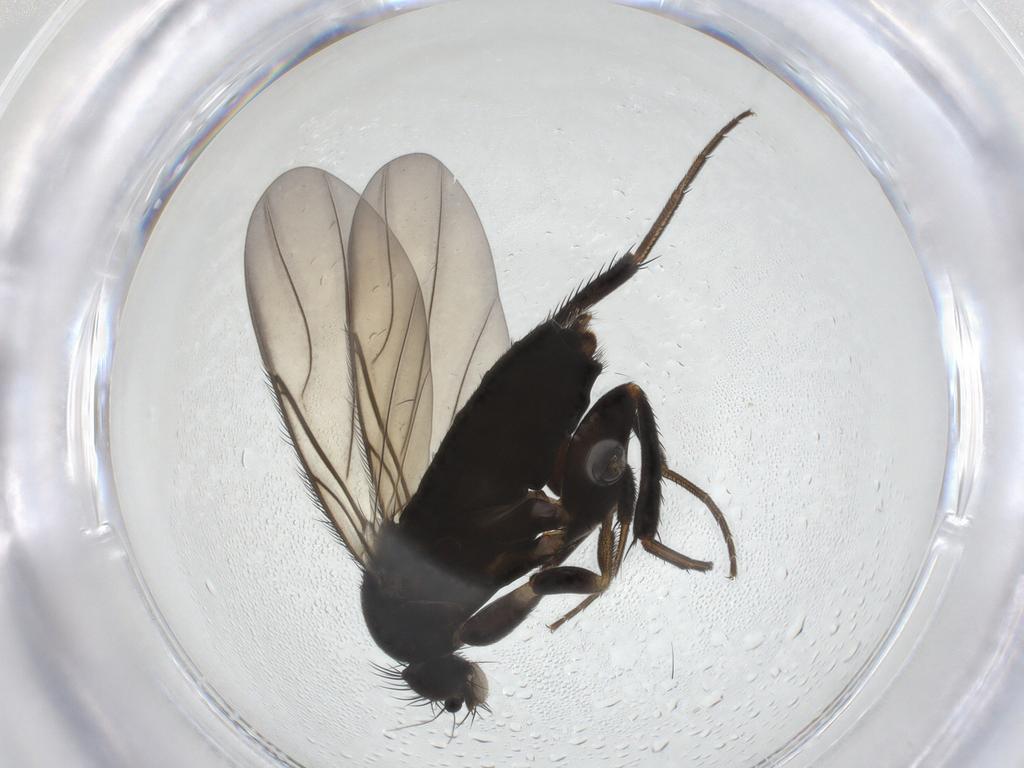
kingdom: Animalia
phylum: Arthropoda
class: Insecta
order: Diptera
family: Phoridae
